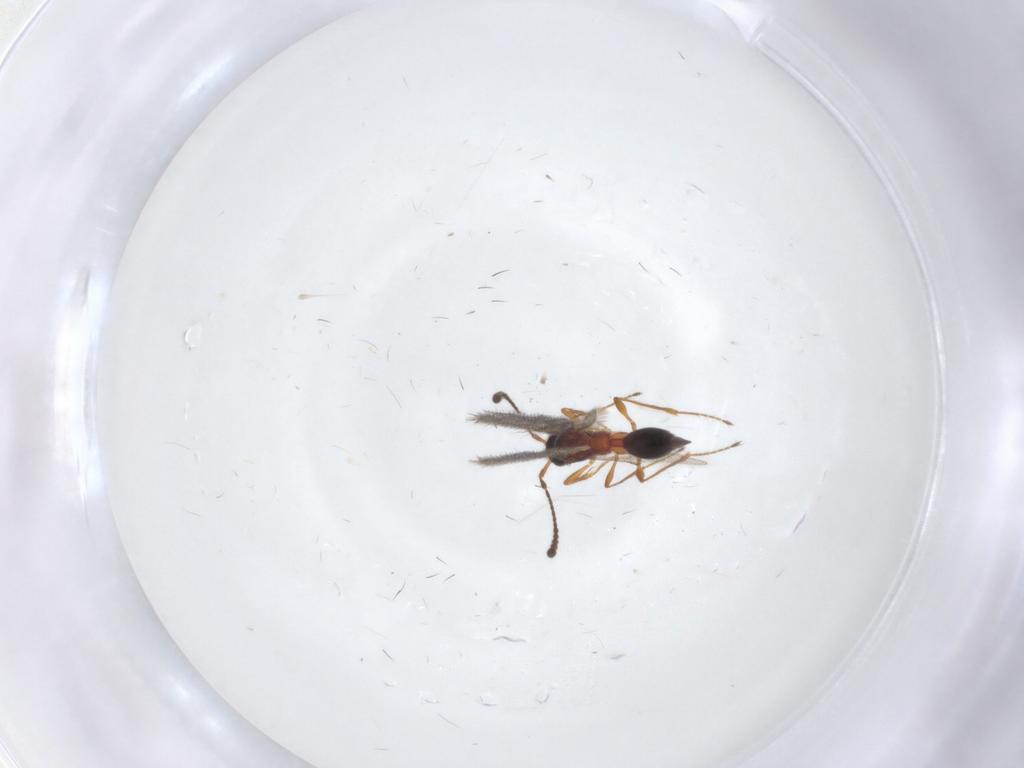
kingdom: Animalia
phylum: Arthropoda
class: Insecta
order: Hymenoptera
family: Diapriidae
